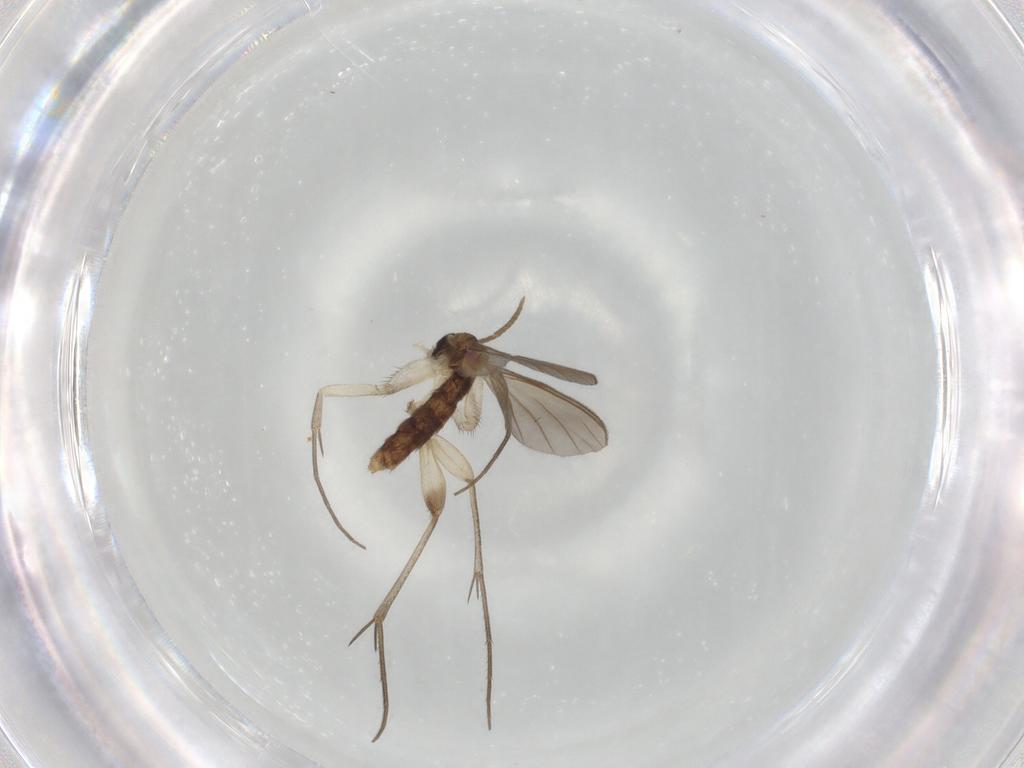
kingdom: Animalia
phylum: Arthropoda
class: Insecta
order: Diptera
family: Mycetophilidae
